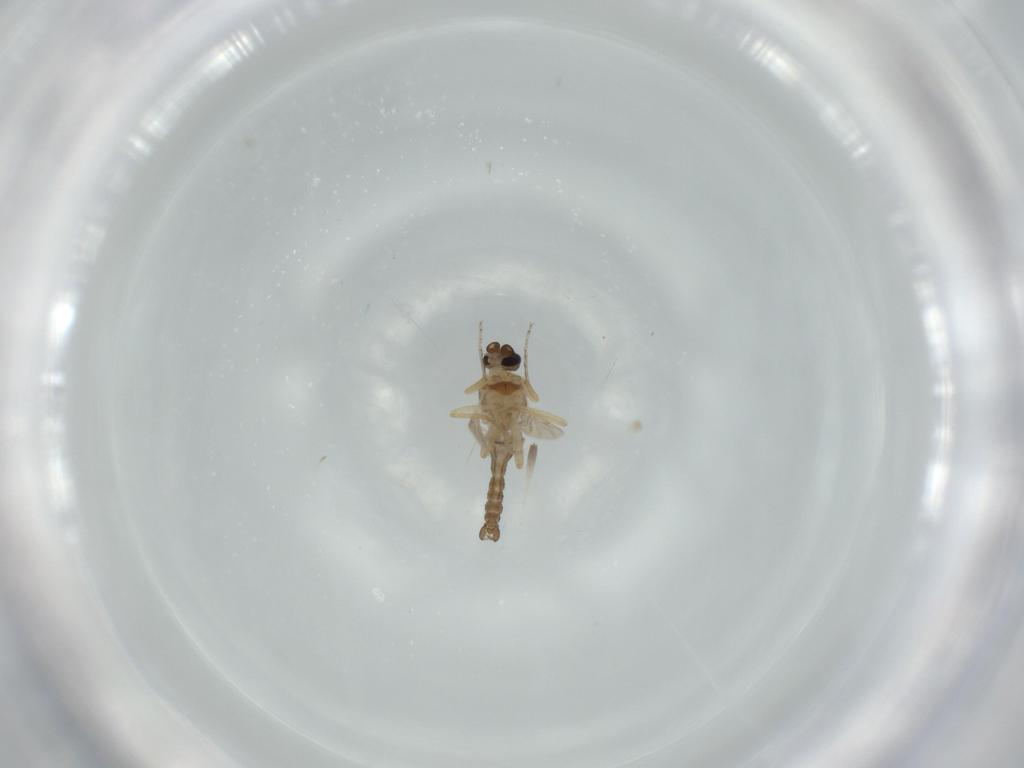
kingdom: Animalia
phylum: Arthropoda
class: Insecta
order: Diptera
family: Ceratopogonidae
